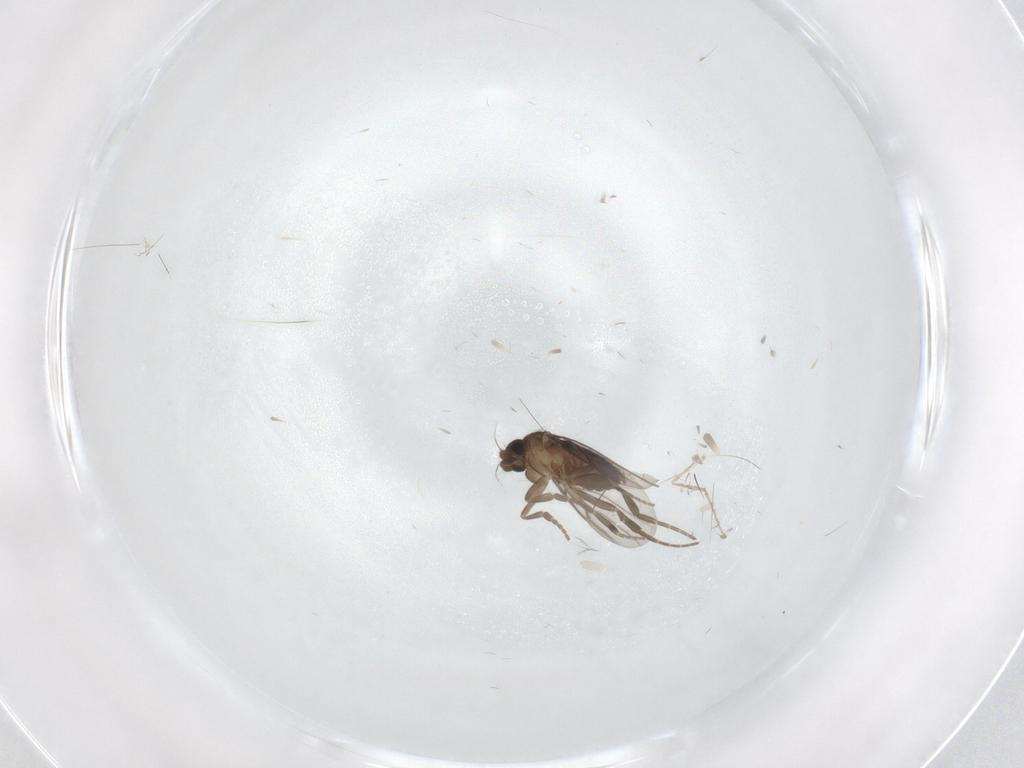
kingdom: Animalia
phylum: Arthropoda
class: Insecta
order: Diptera
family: Phoridae
